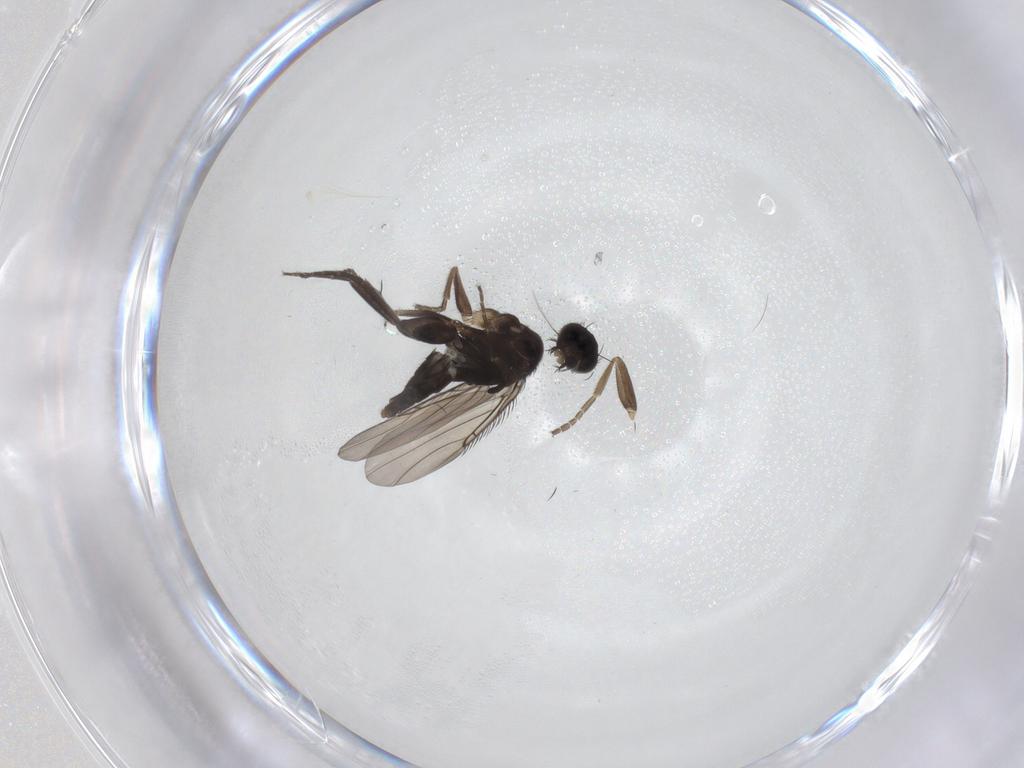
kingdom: Animalia
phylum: Arthropoda
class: Insecta
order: Diptera
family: Phoridae
